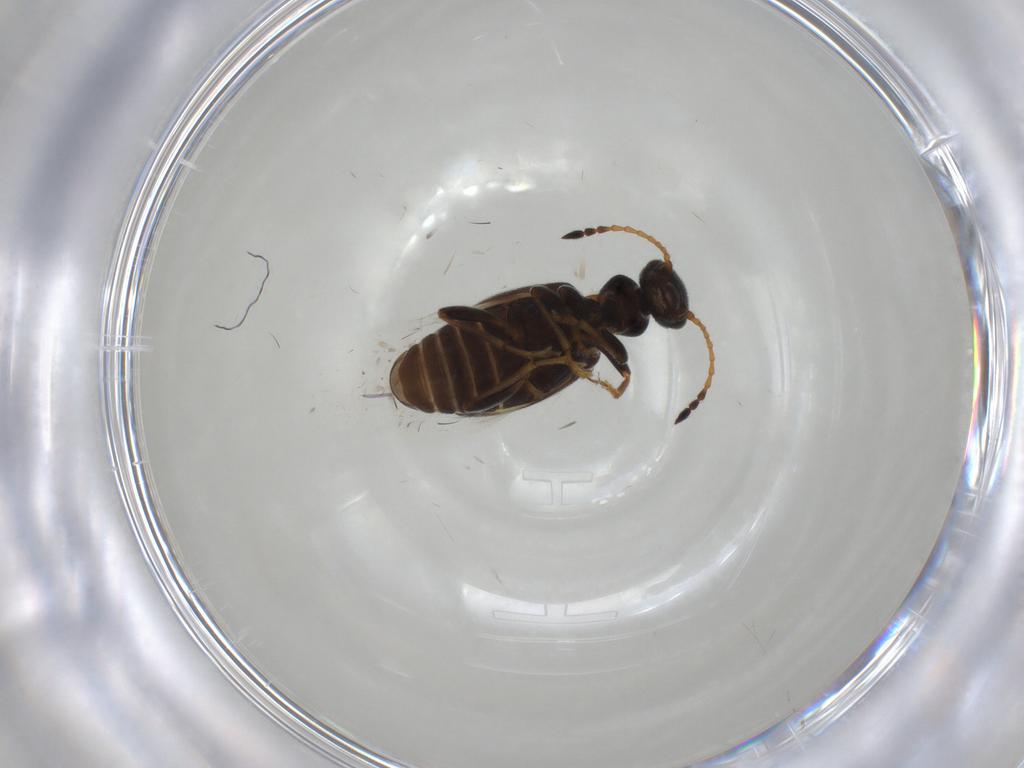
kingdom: Animalia
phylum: Arthropoda
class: Insecta
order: Coleoptera
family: Anthicidae
